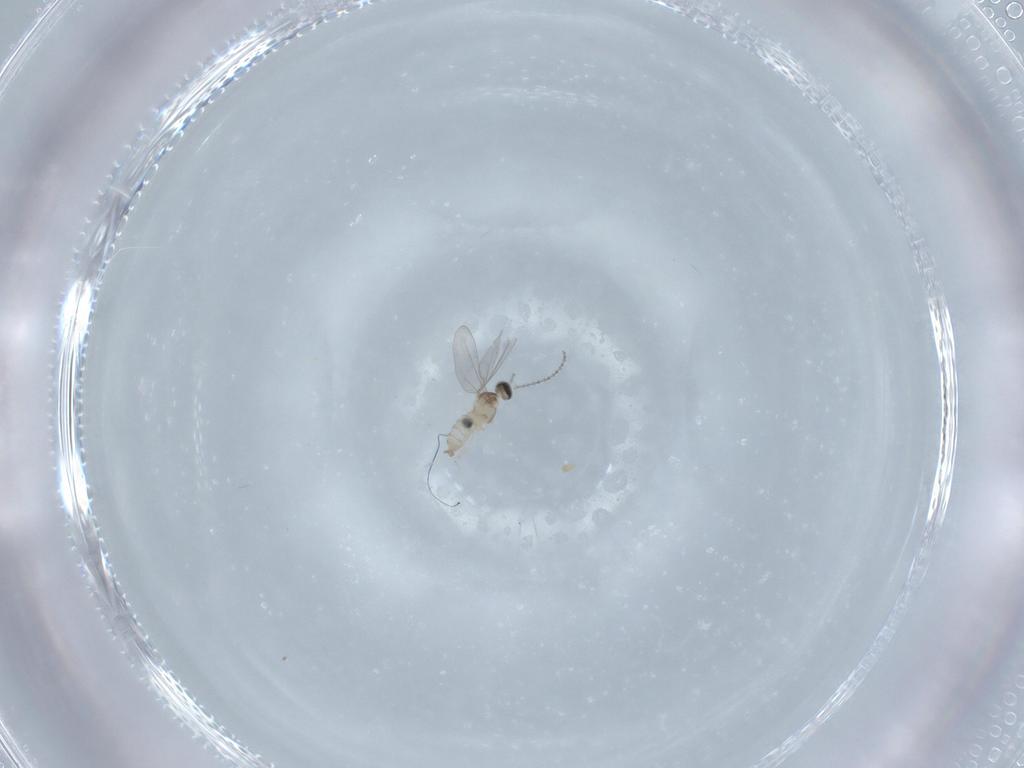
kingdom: Animalia
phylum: Arthropoda
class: Insecta
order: Diptera
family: Cecidomyiidae
